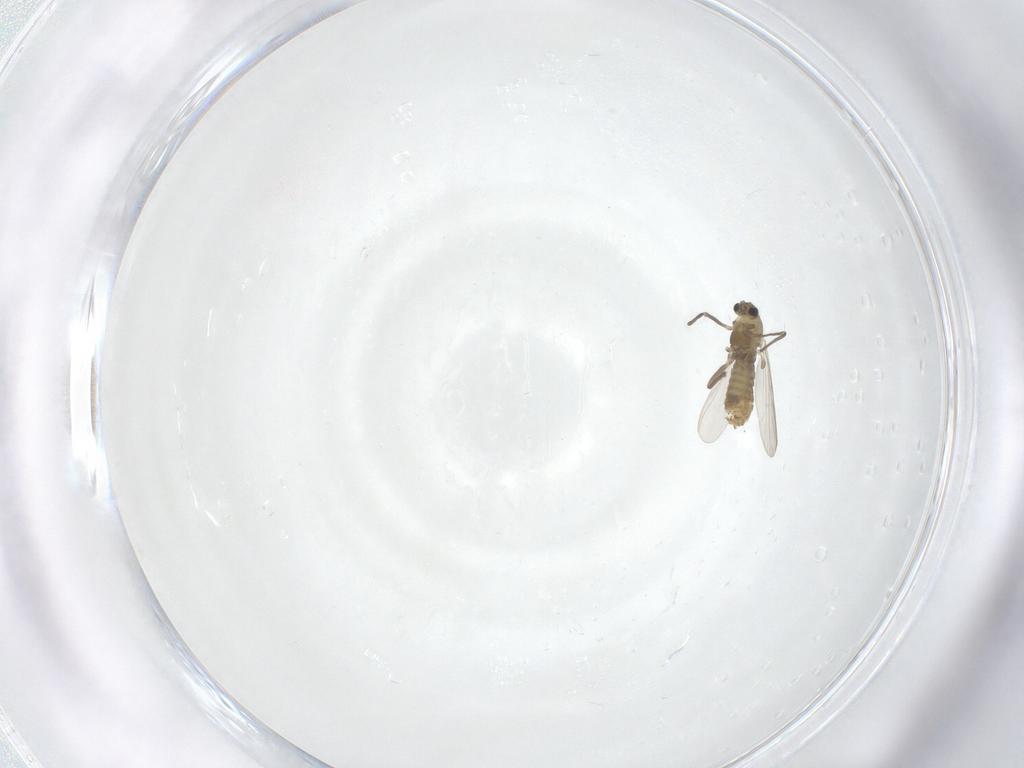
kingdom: Animalia
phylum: Arthropoda
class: Insecta
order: Diptera
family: Chironomidae
